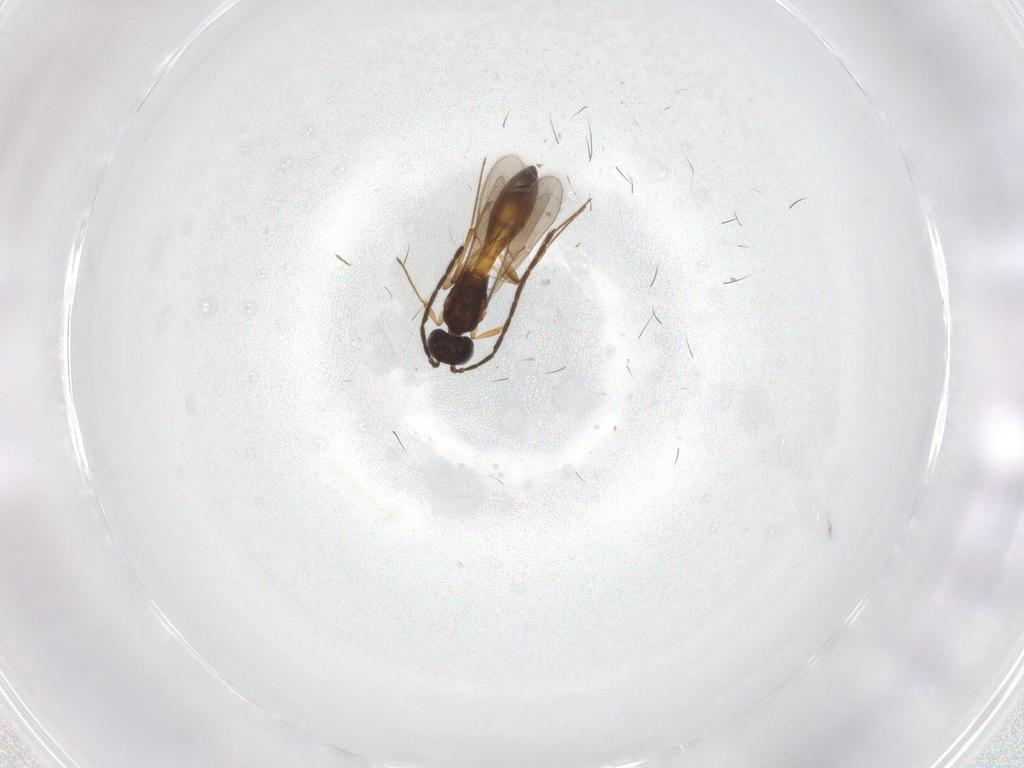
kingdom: Animalia
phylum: Arthropoda
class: Insecta
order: Hymenoptera
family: Scelionidae
